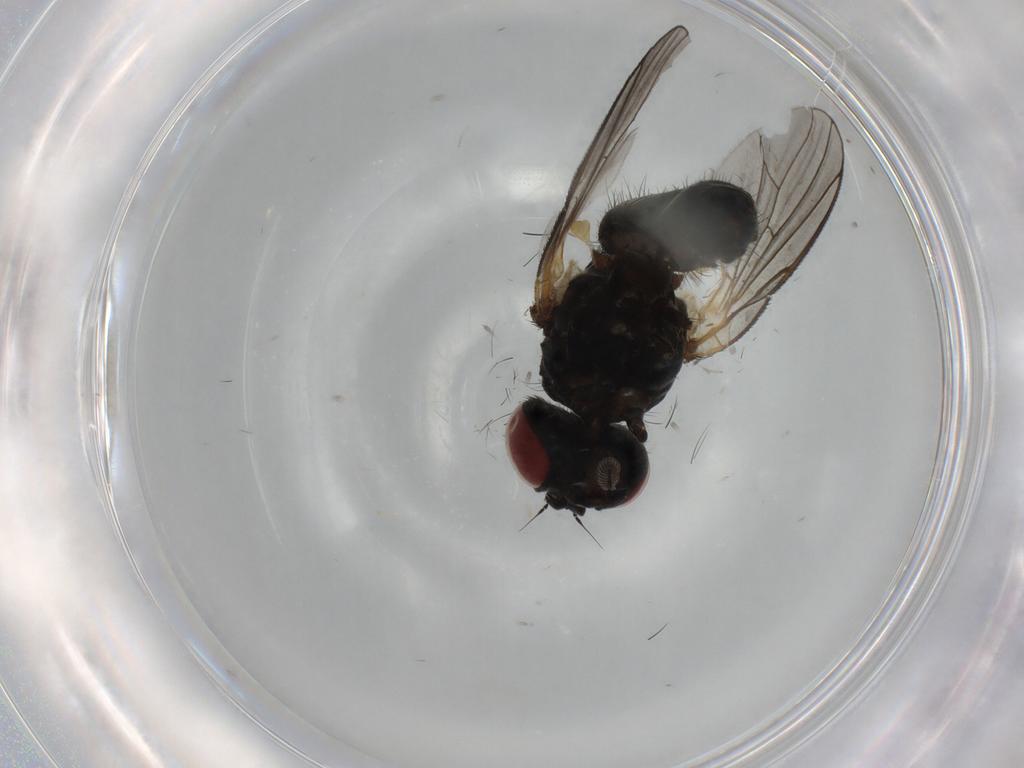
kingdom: Animalia
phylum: Arthropoda
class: Insecta
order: Diptera
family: Fannia
